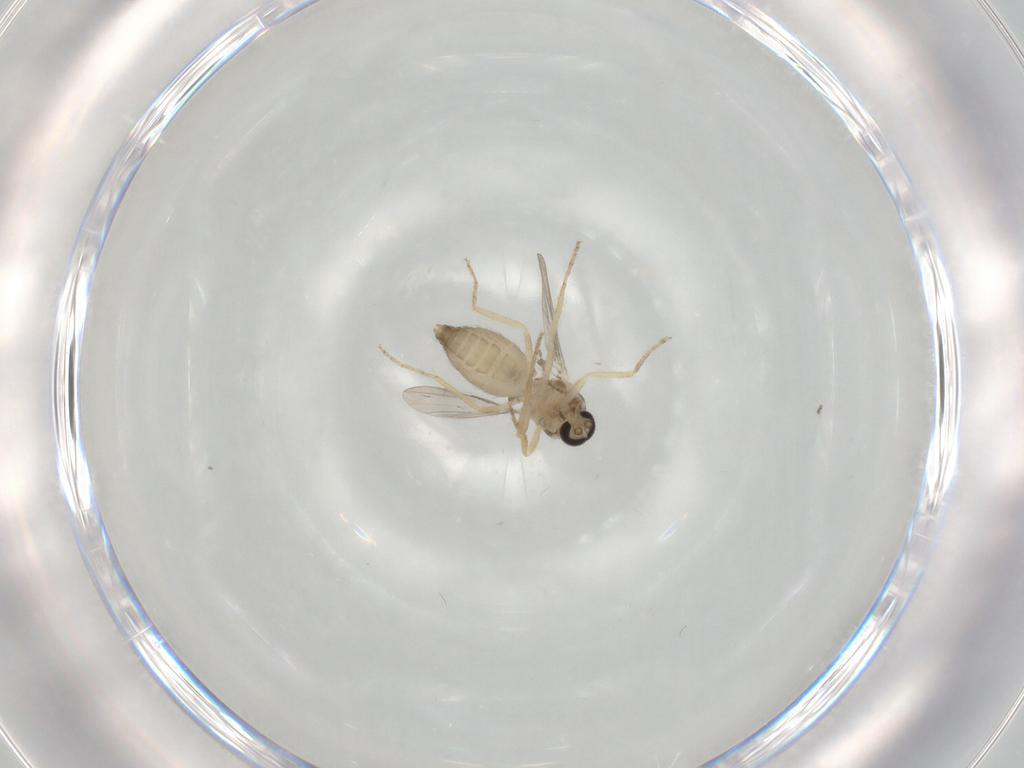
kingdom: Animalia
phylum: Arthropoda
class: Insecta
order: Diptera
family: Ceratopogonidae
